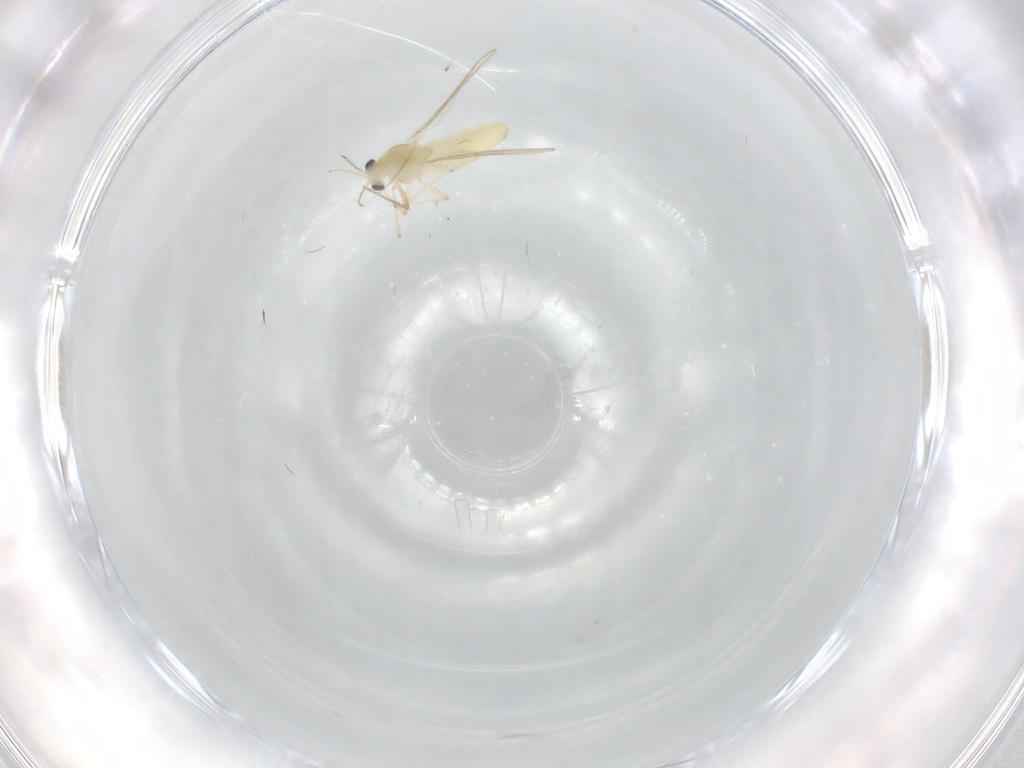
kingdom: Animalia
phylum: Arthropoda
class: Insecta
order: Diptera
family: Chironomidae
